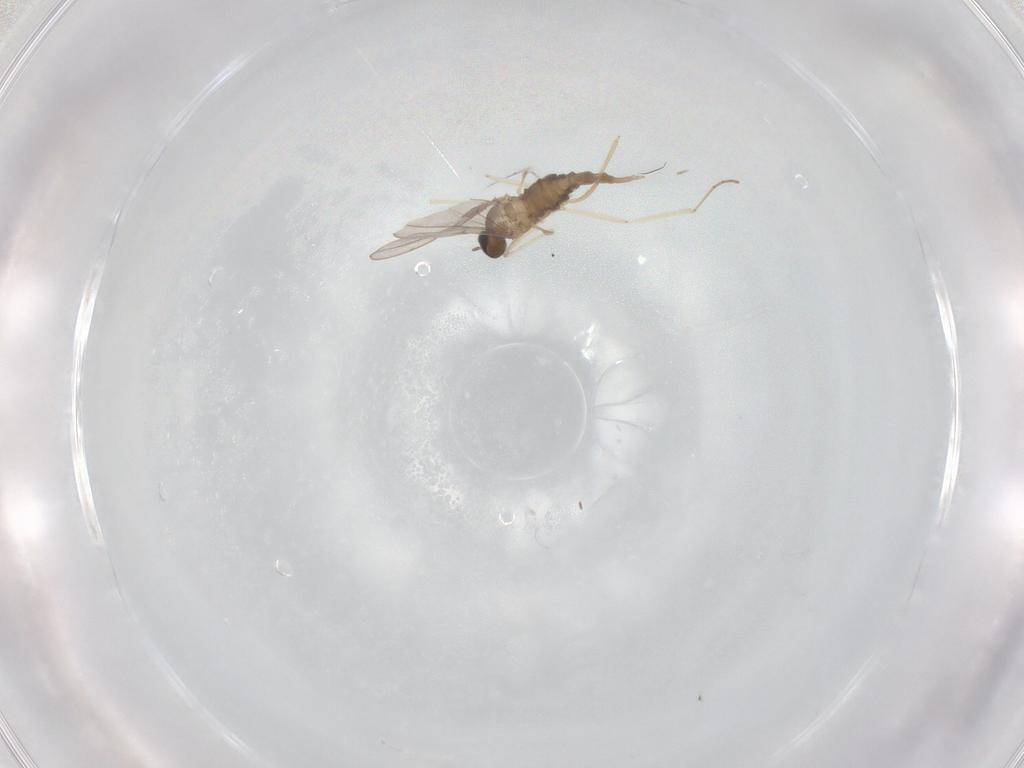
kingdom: Animalia
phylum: Arthropoda
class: Insecta
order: Diptera
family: Cecidomyiidae
